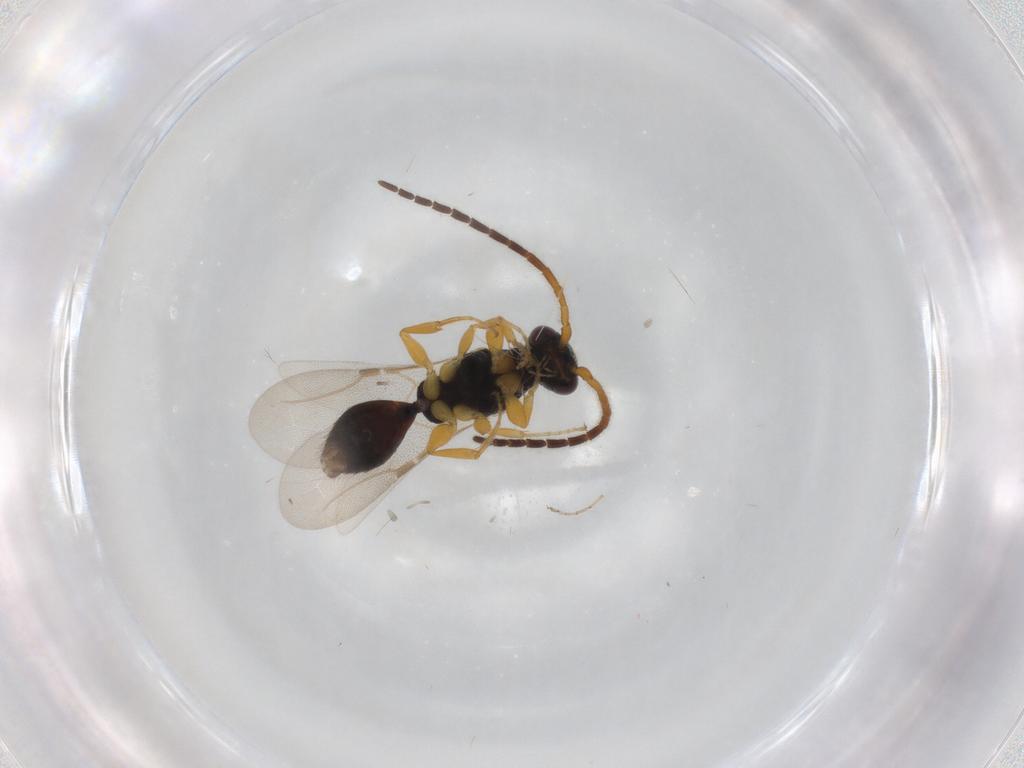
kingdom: Animalia
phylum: Arthropoda
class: Insecta
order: Hymenoptera
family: Bethylidae
